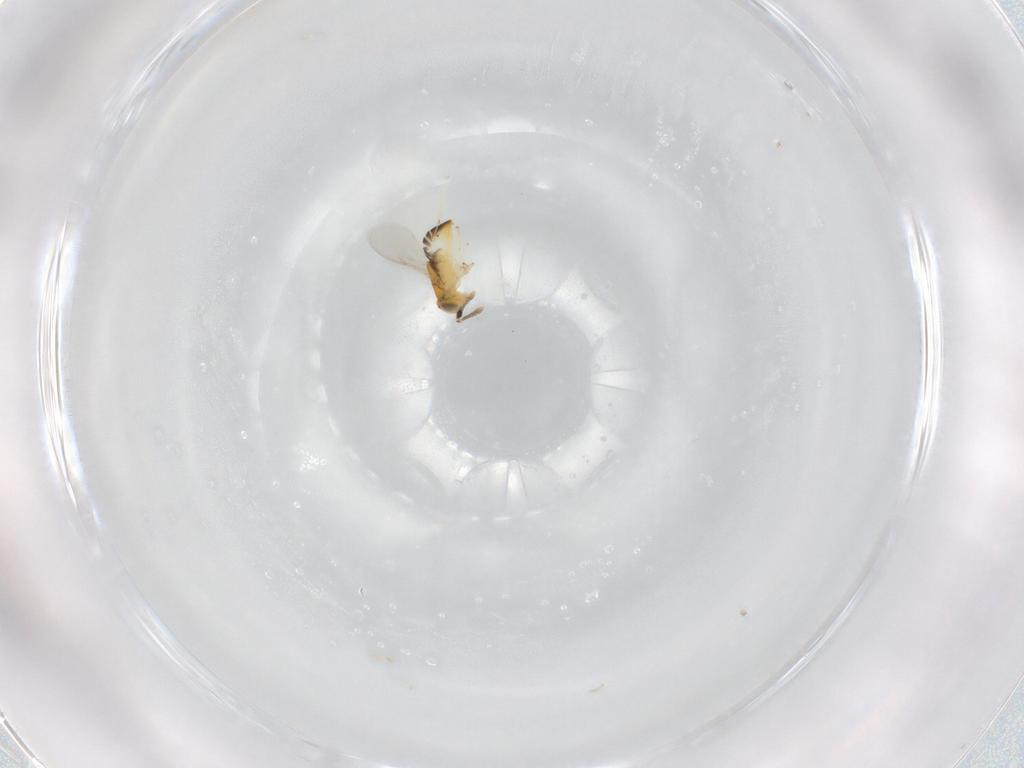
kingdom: Animalia
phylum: Arthropoda
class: Insecta
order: Hymenoptera
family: Encyrtidae
